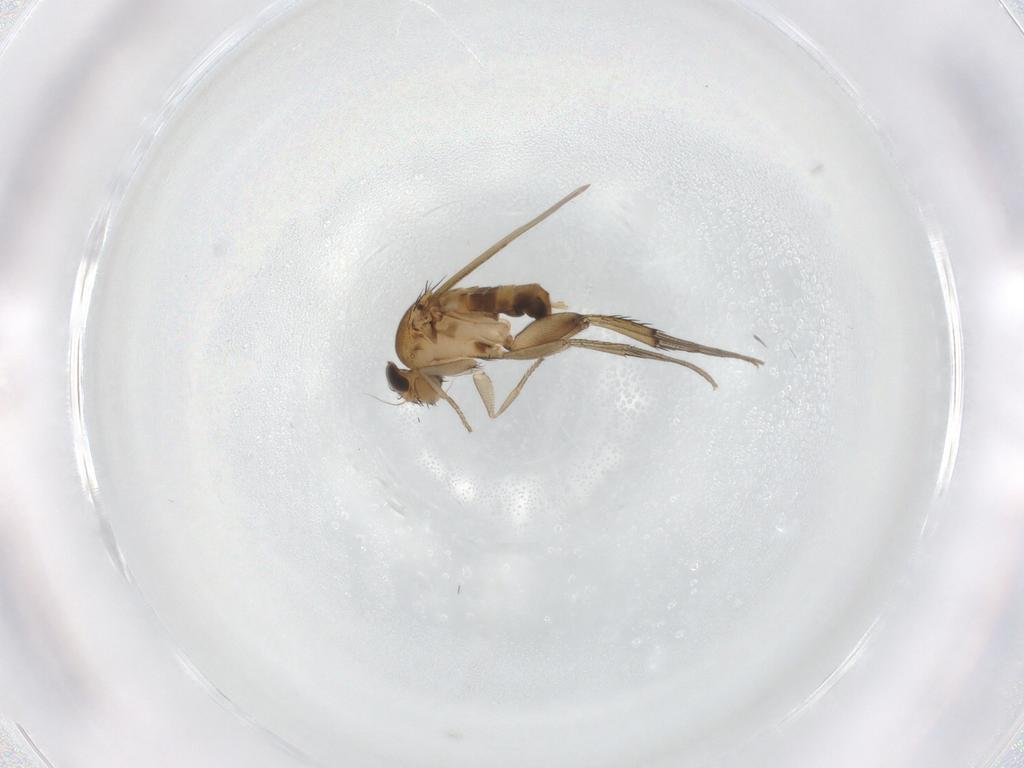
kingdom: Animalia
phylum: Arthropoda
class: Insecta
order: Diptera
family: Phoridae
